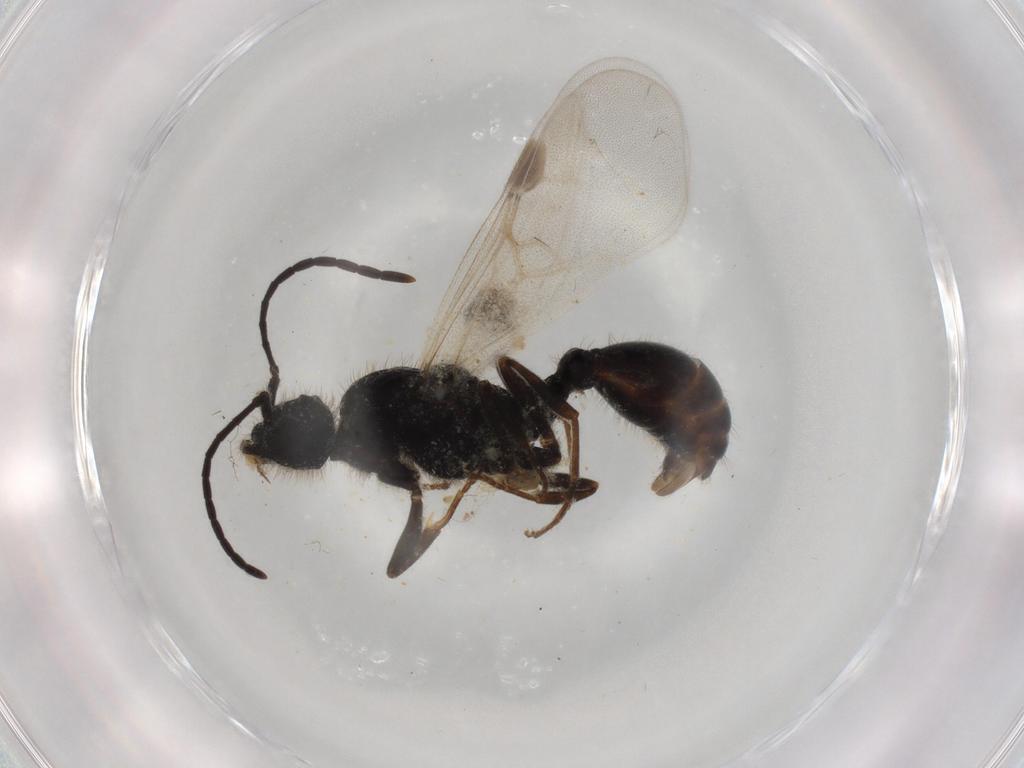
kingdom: Animalia
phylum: Arthropoda
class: Insecta
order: Hymenoptera
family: Formicidae
